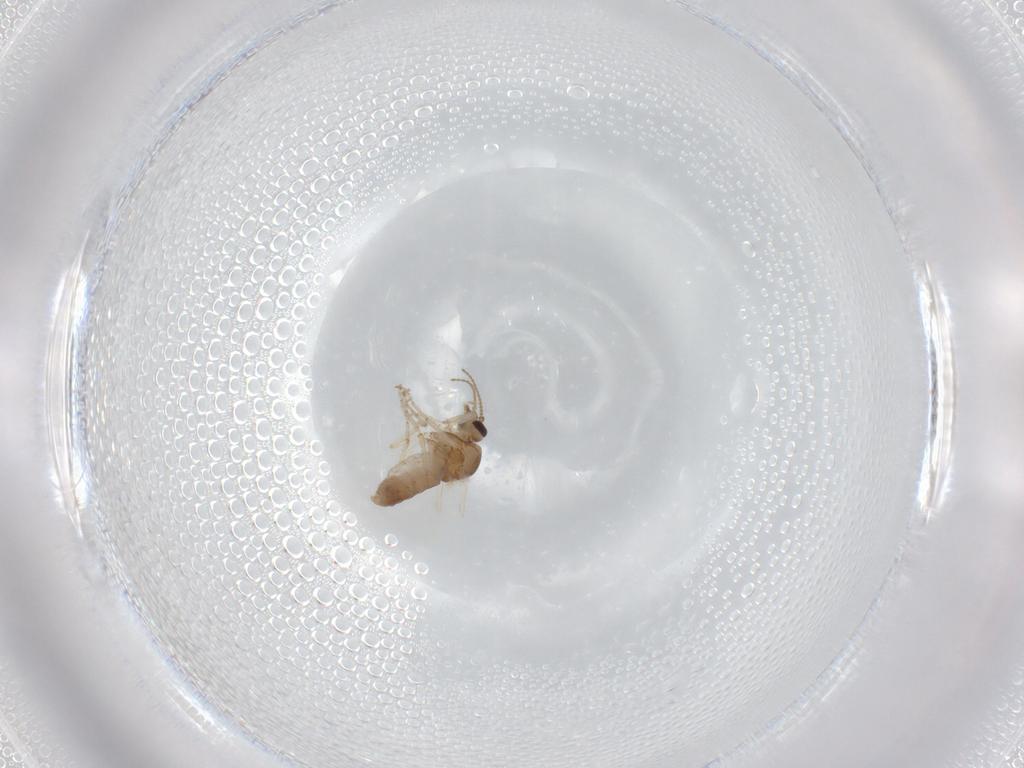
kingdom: Animalia
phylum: Arthropoda
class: Insecta
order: Diptera
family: Ceratopogonidae
